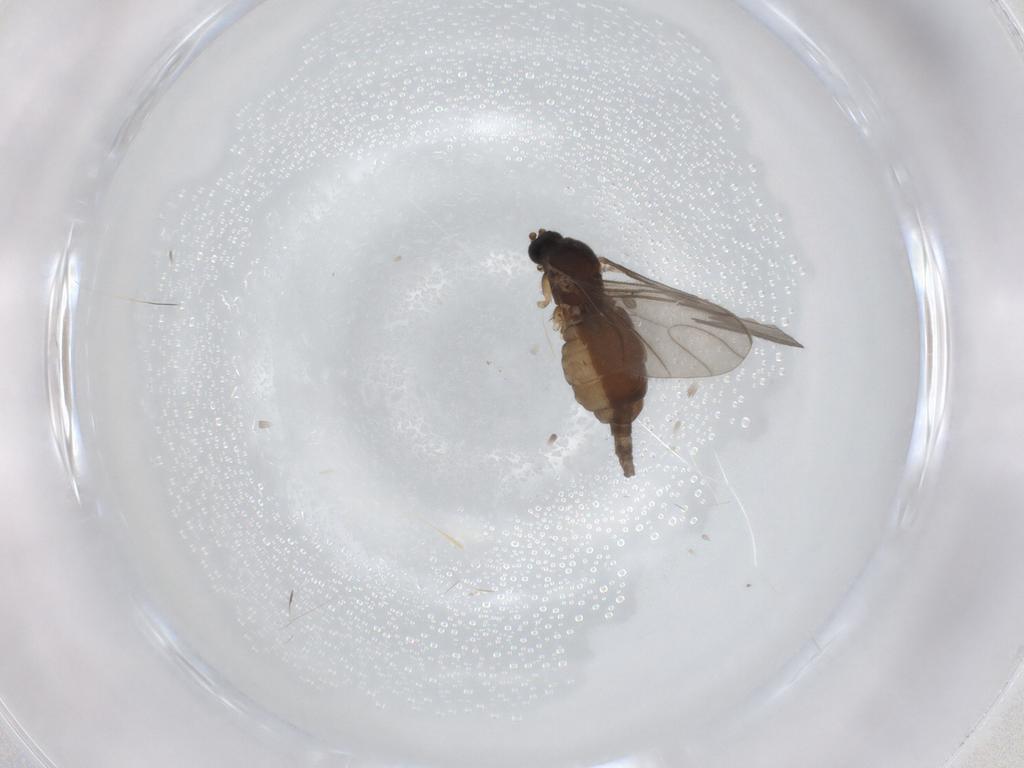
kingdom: Animalia
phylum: Arthropoda
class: Insecta
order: Diptera
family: Sciaridae
